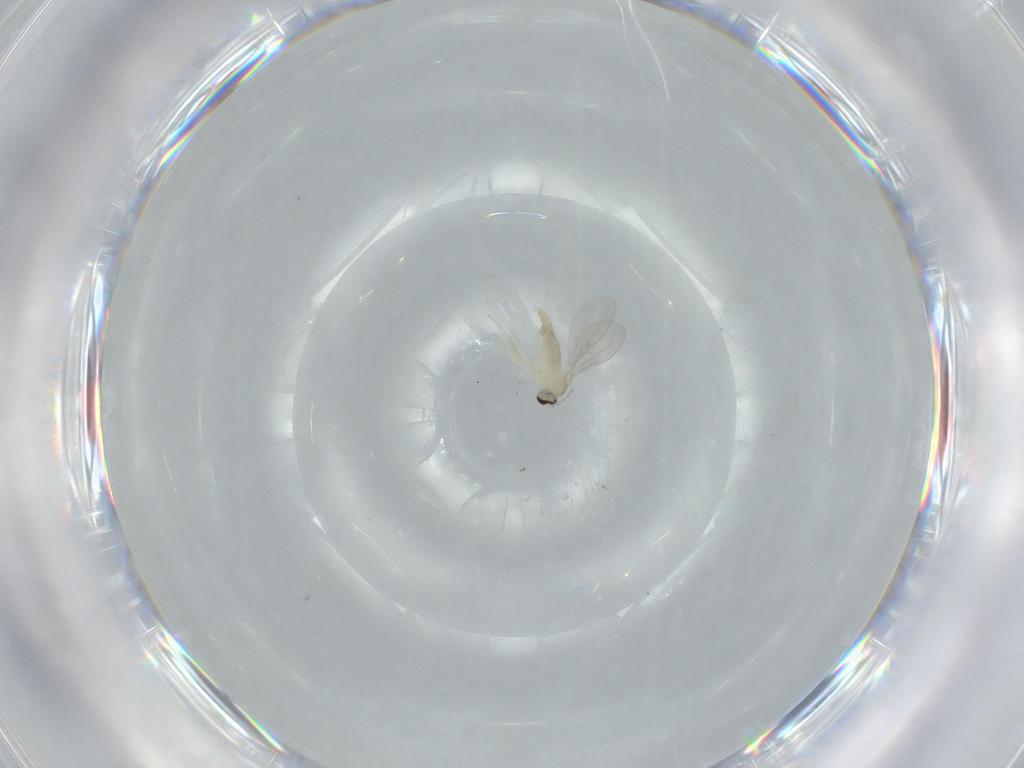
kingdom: Animalia
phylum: Arthropoda
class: Insecta
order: Diptera
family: Cecidomyiidae
